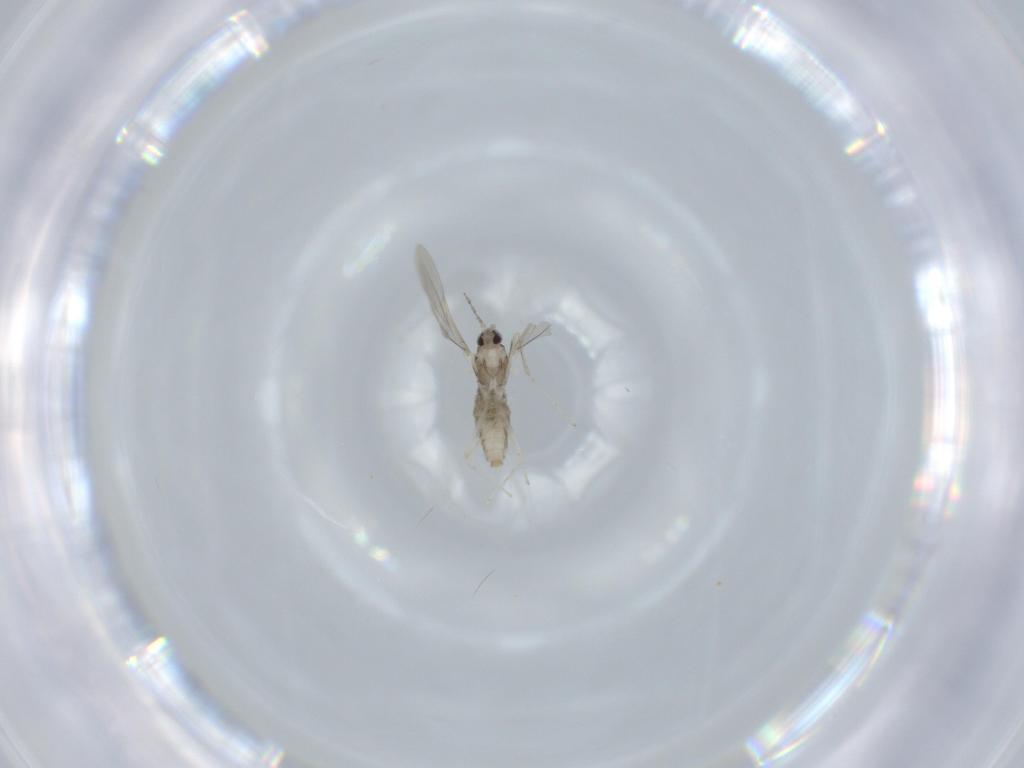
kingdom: Animalia
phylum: Arthropoda
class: Insecta
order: Diptera
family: Cecidomyiidae
